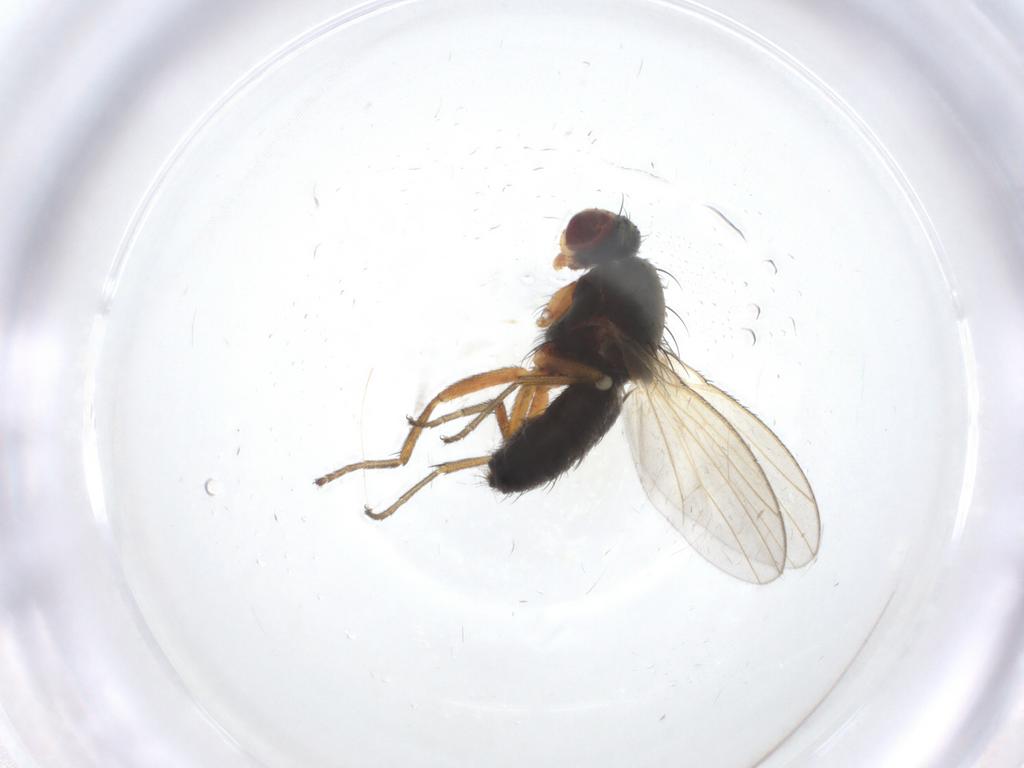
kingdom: Animalia
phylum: Arthropoda
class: Insecta
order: Diptera
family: Heleomyzidae
